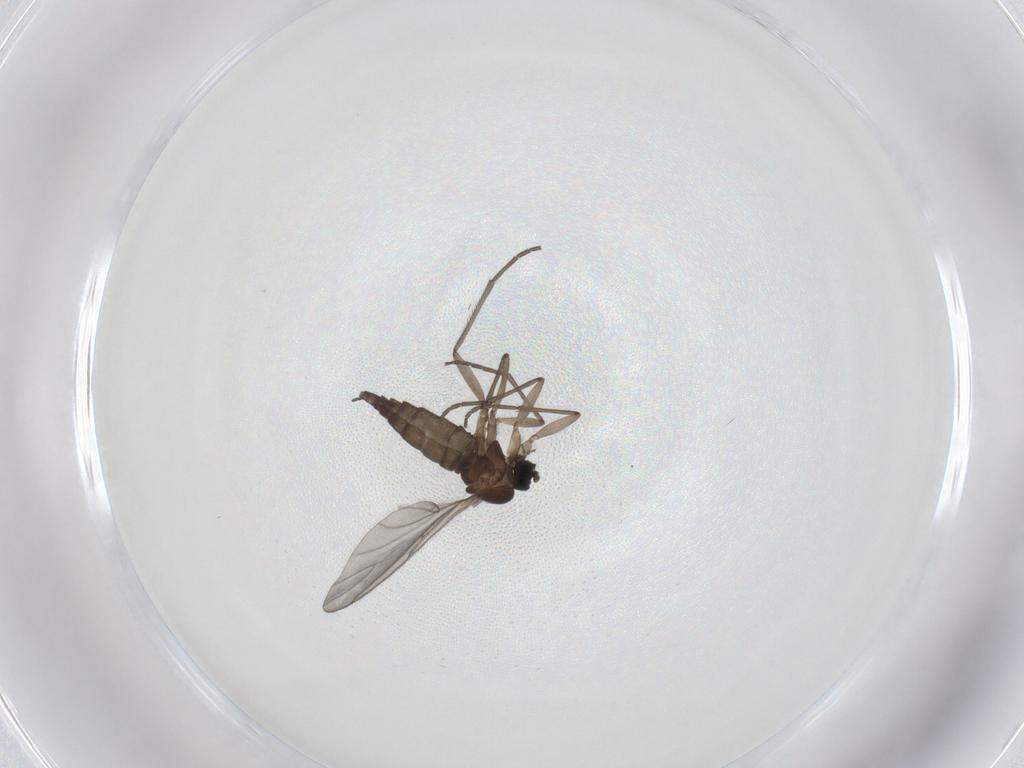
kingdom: Animalia
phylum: Arthropoda
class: Insecta
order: Diptera
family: Sciaridae
